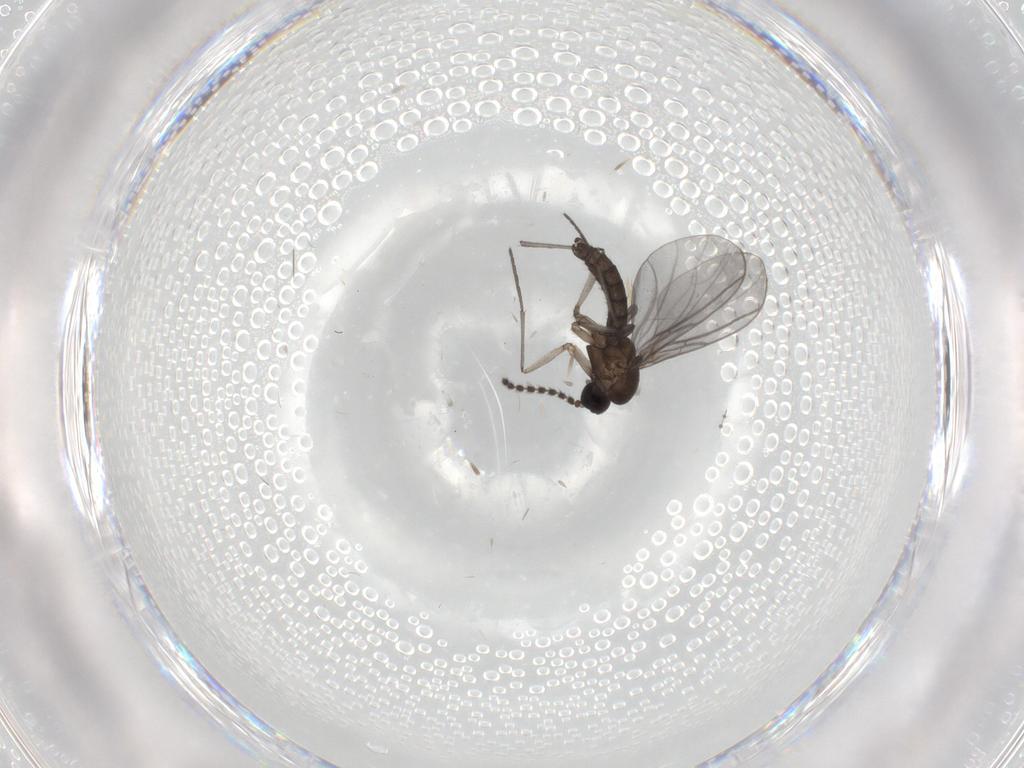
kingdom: Animalia
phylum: Arthropoda
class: Insecta
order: Diptera
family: Sciaridae
